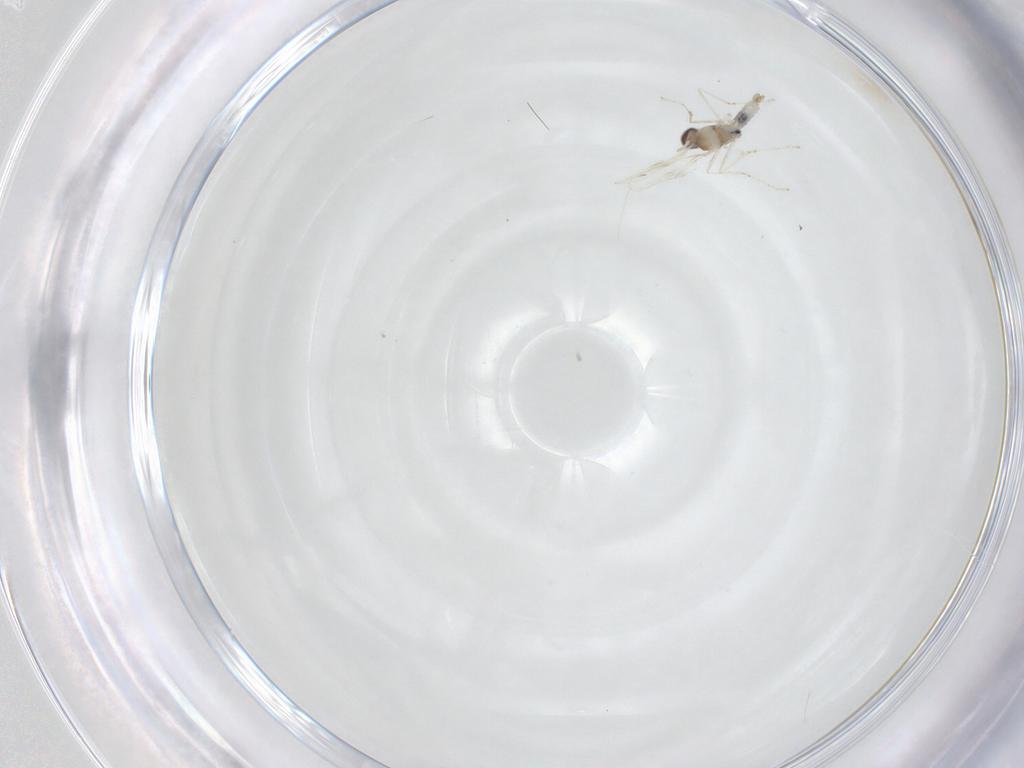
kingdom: Animalia
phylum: Arthropoda
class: Insecta
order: Diptera
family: Cecidomyiidae
